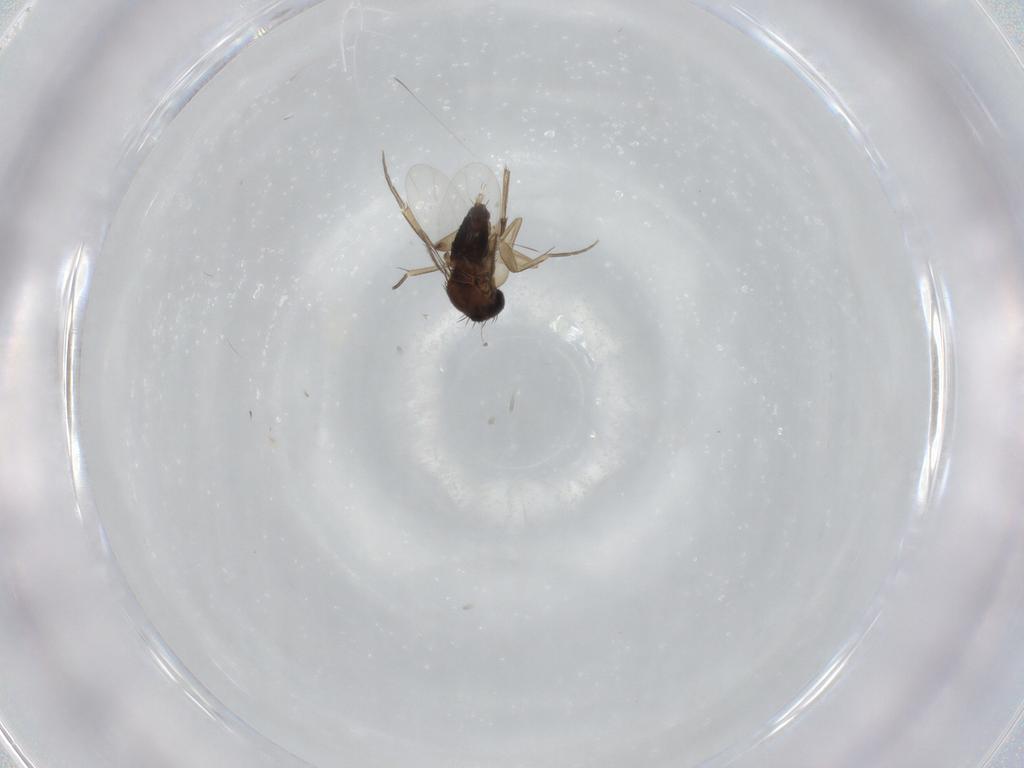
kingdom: Animalia
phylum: Arthropoda
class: Insecta
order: Diptera
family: Phoridae
